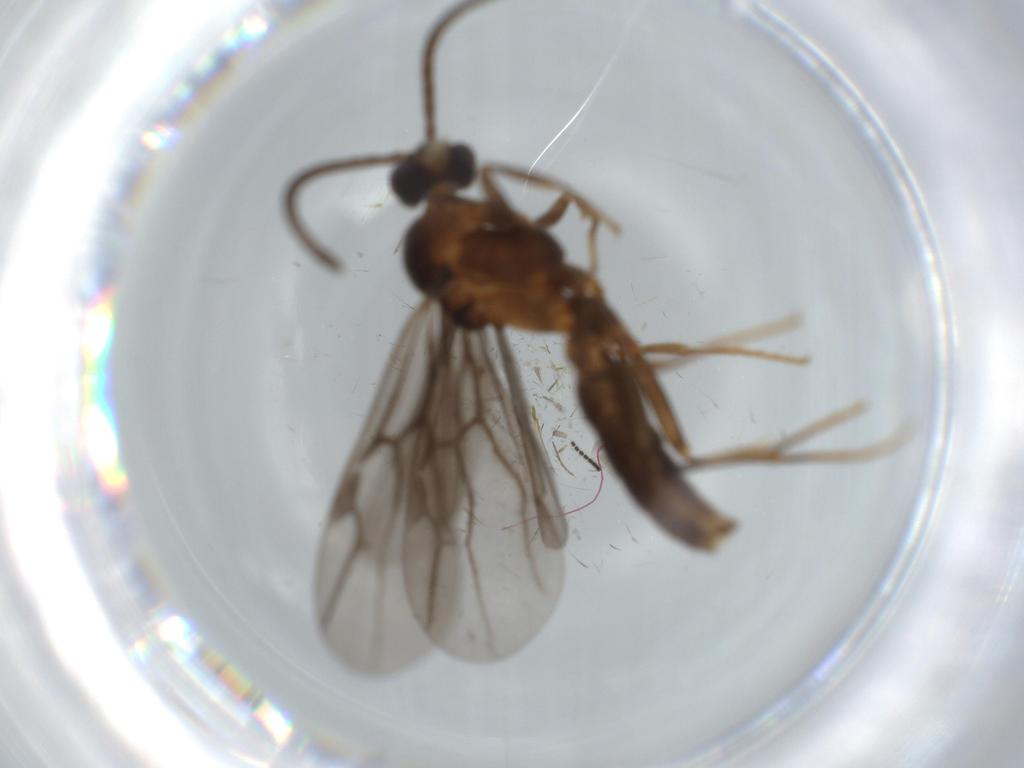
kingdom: Animalia
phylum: Arthropoda
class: Insecta
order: Hymenoptera
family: Formicidae
